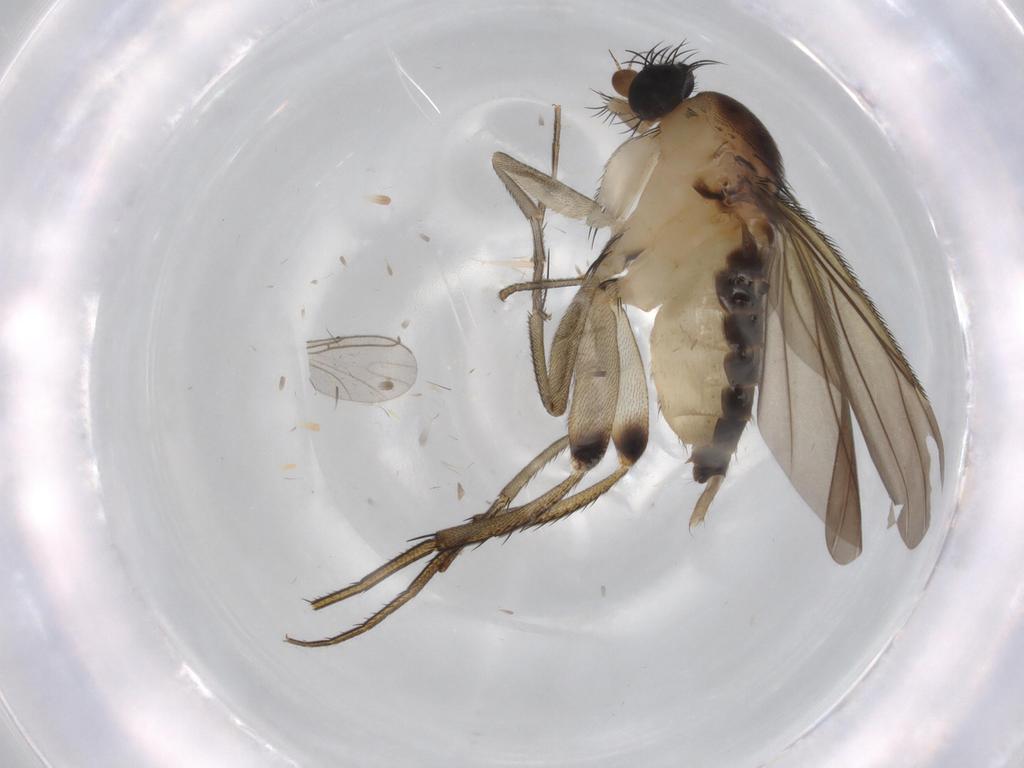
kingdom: Animalia
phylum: Arthropoda
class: Insecta
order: Diptera
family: Phoridae
